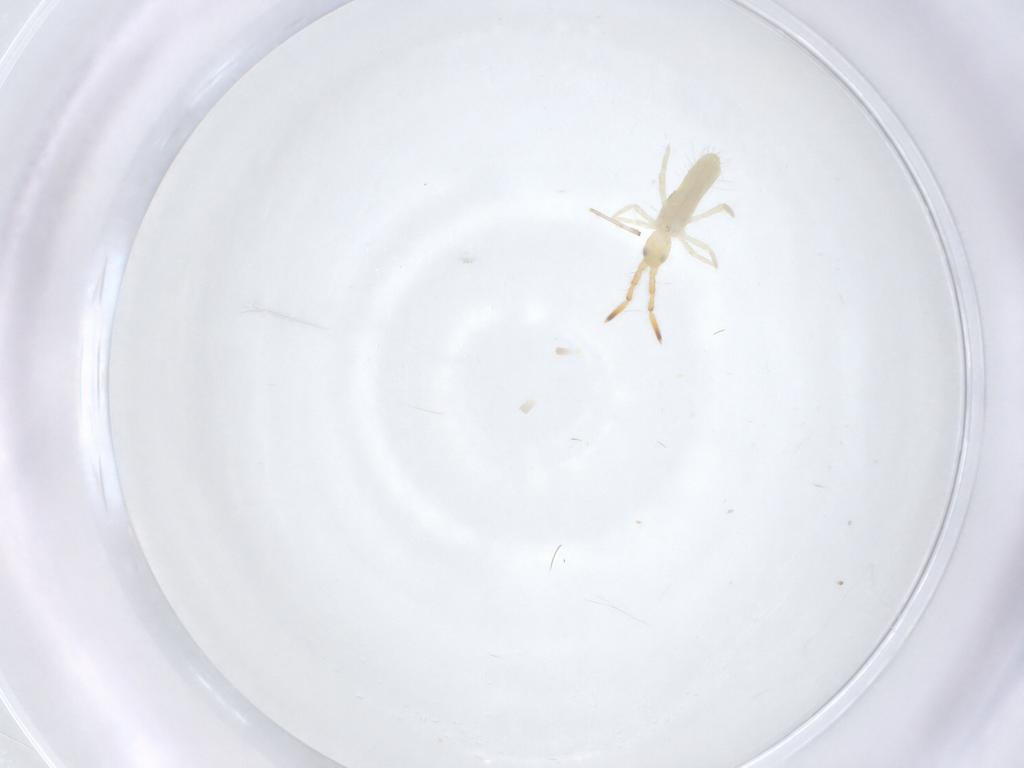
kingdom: Animalia
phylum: Arthropoda
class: Collembola
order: Entomobryomorpha
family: Entomobryidae
